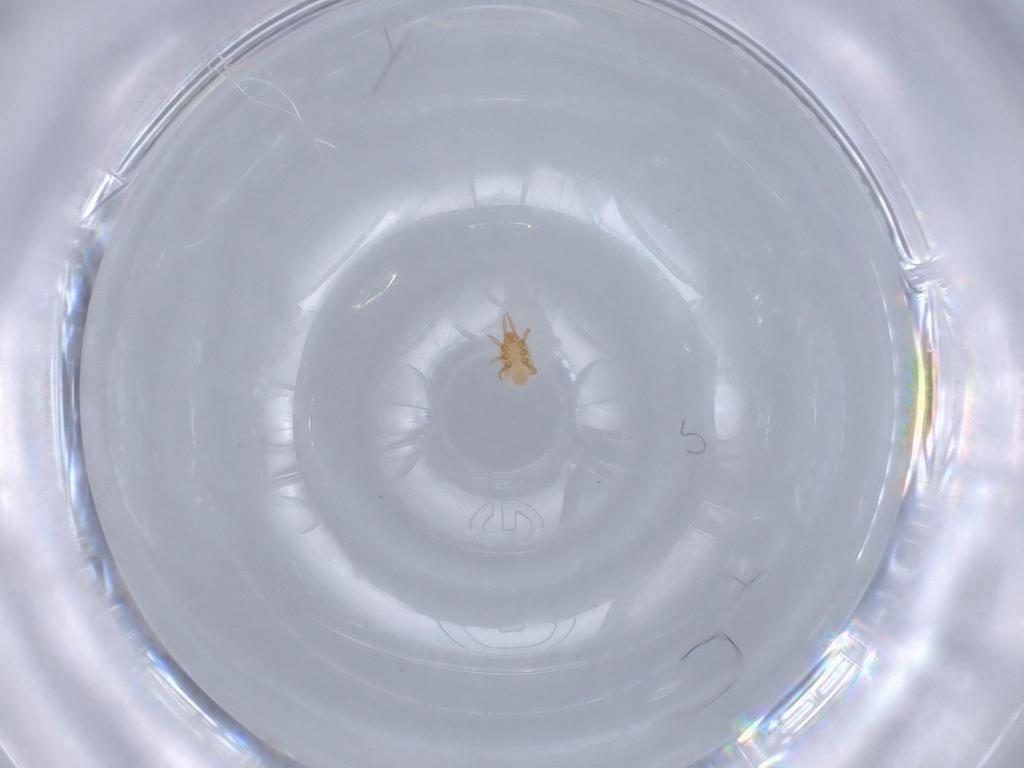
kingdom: Animalia
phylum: Arthropoda
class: Arachnida
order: Mesostigmata
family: Dinychidae
